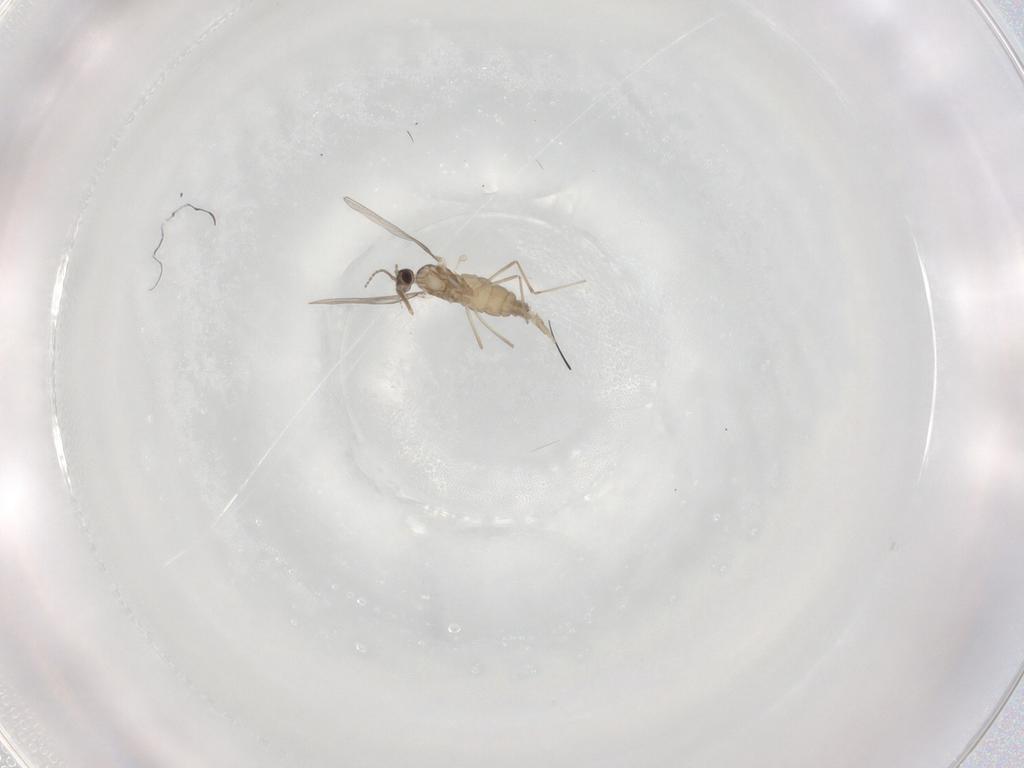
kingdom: Animalia
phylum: Arthropoda
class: Insecta
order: Diptera
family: Cecidomyiidae
